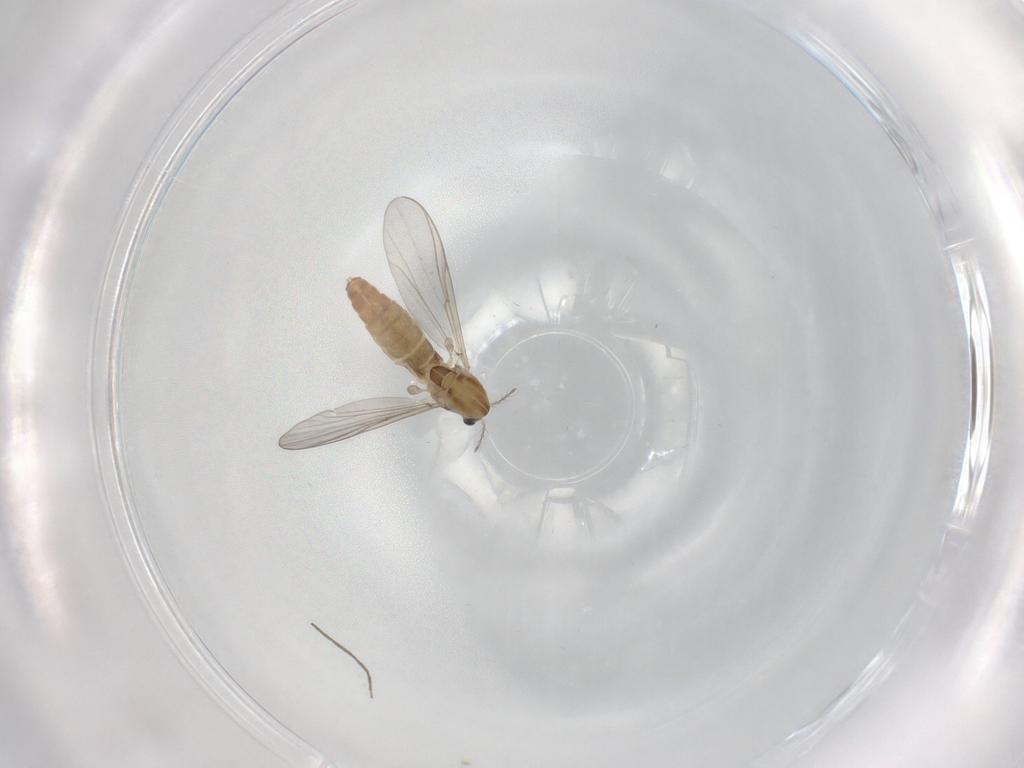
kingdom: Animalia
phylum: Arthropoda
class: Insecta
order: Diptera
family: Chironomidae
